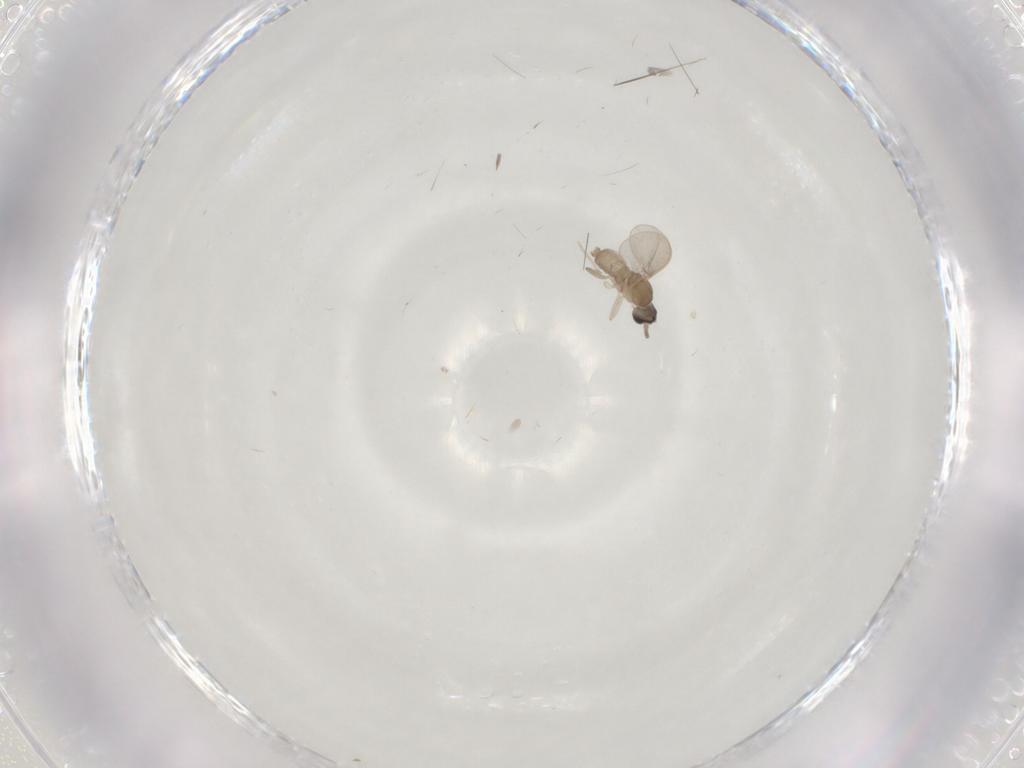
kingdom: Animalia
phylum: Arthropoda
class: Insecta
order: Diptera
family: Cecidomyiidae
